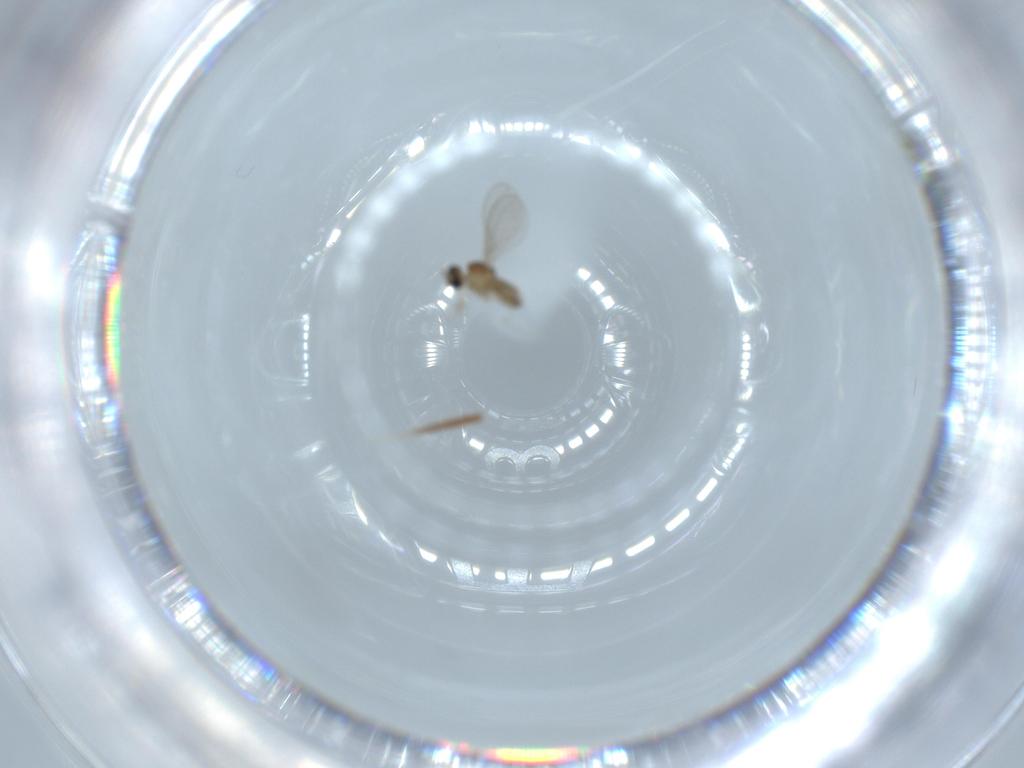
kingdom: Animalia
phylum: Arthropoda
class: Insecta
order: Diptera
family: Cecidomyiidae
